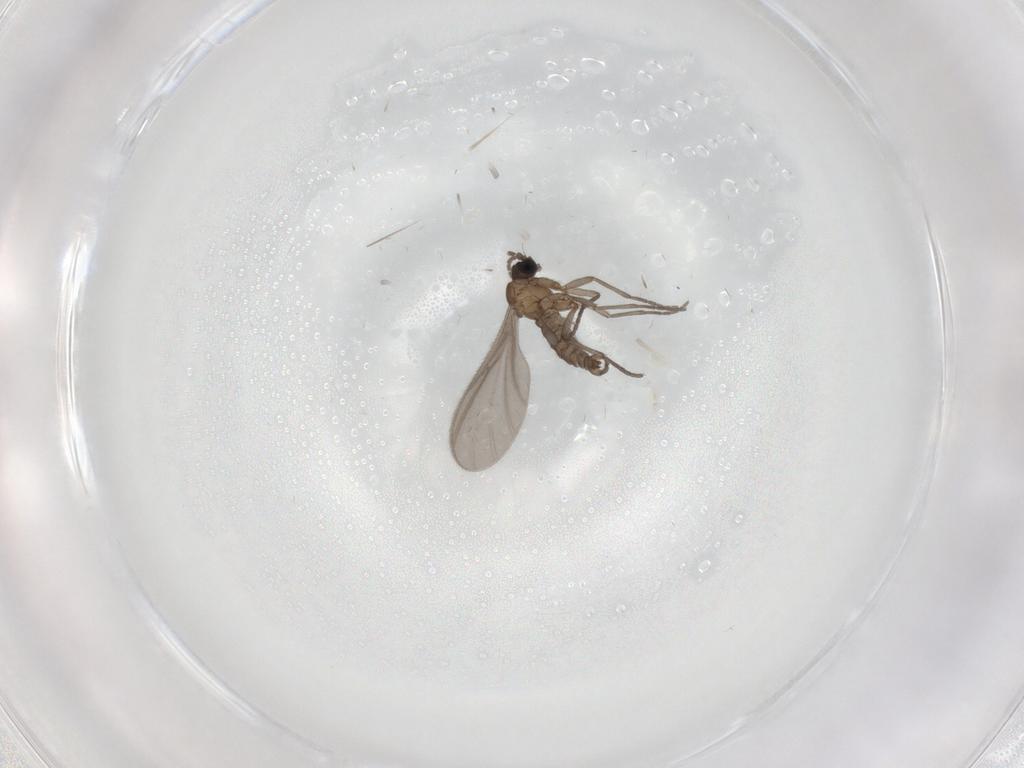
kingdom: Animalia
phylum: Arthropoda
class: Insecta
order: Diptera
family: Sciaridae
